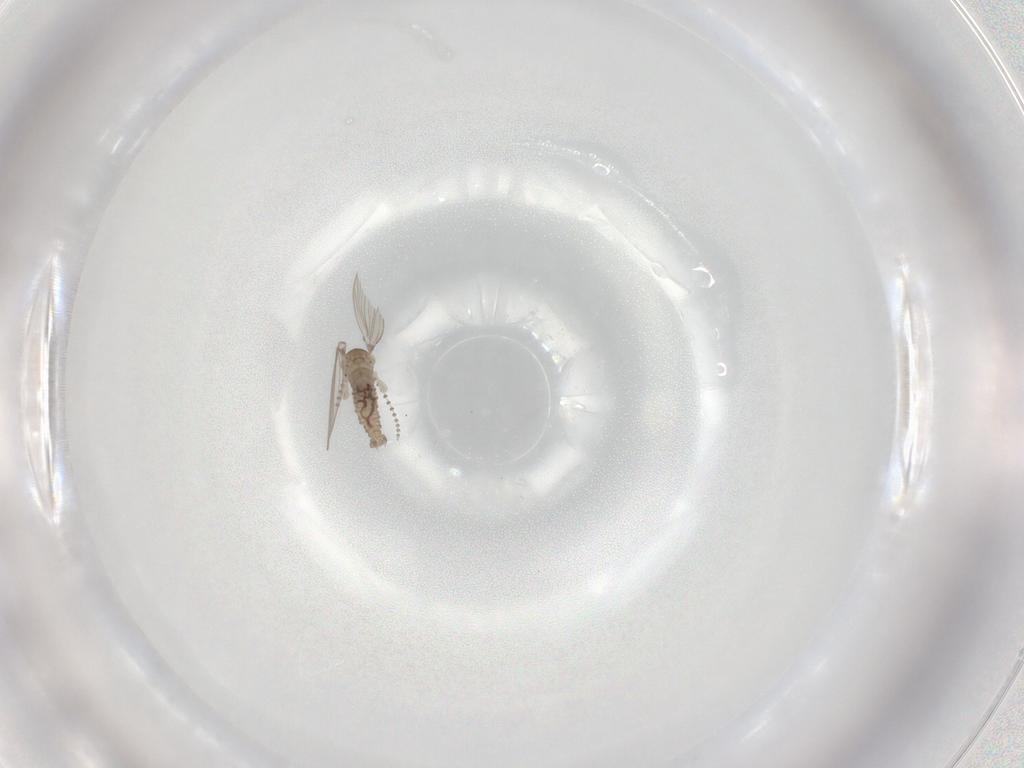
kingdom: Animalia
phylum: Arthropoda
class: Insecta
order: Diptera
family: Psychodidae
